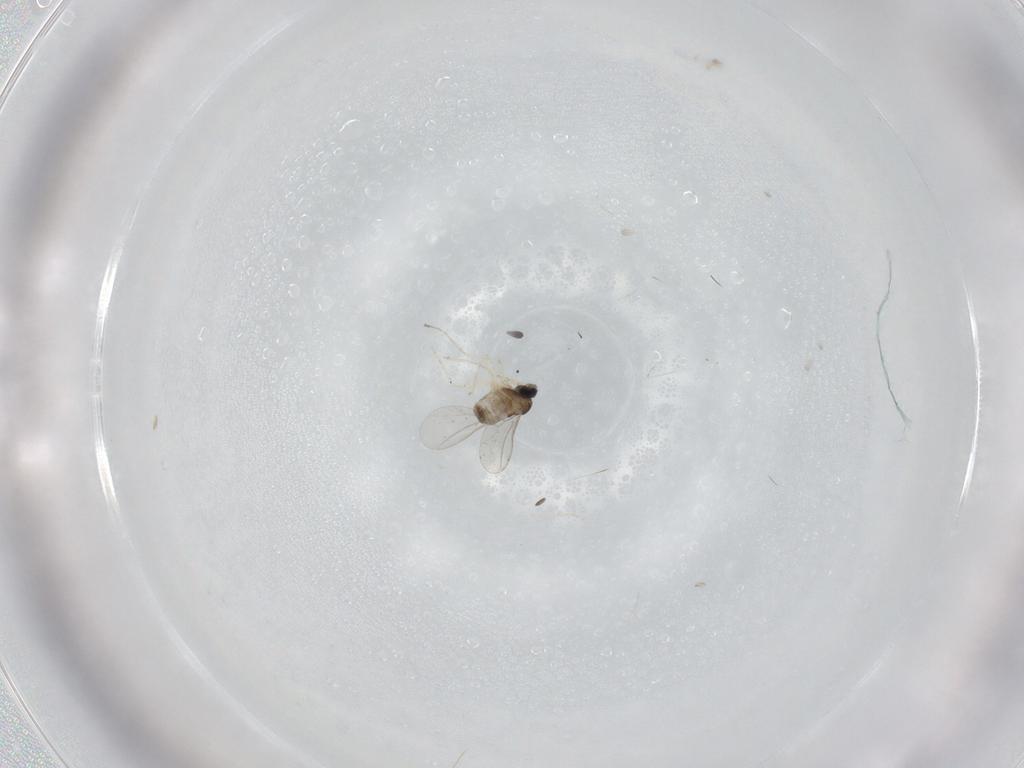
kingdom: Animalia
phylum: Arthropoda
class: Insecta
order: Diptera
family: Cecidomyiidae
